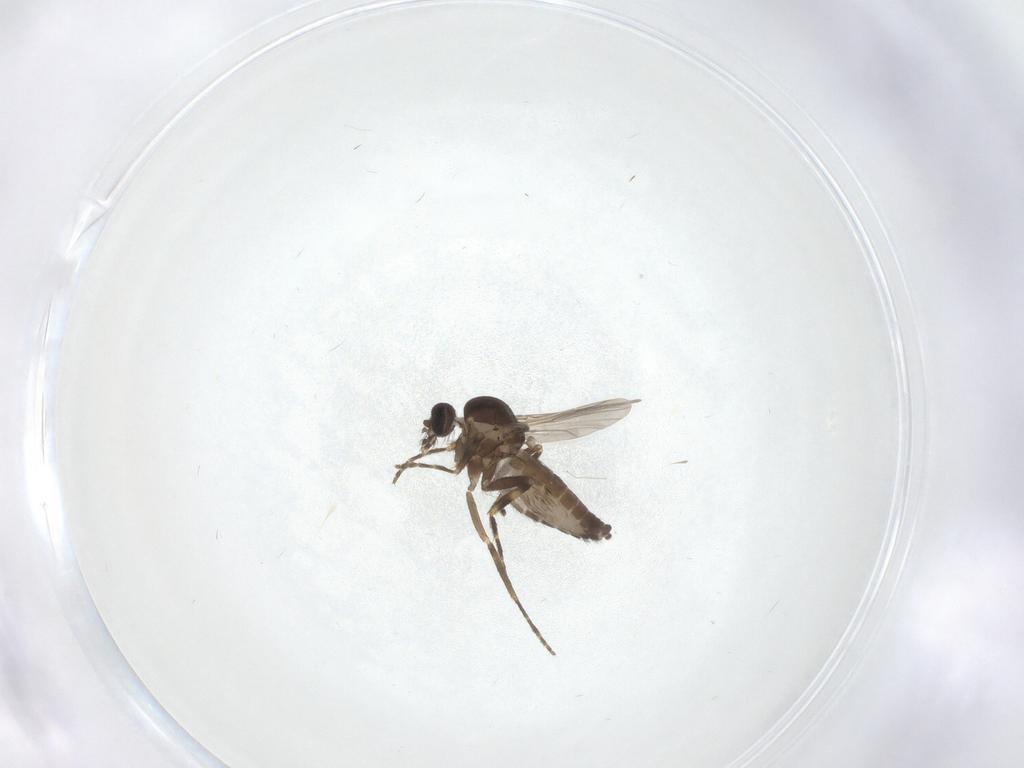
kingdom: Animalia
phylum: Arthropoda
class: Insecta
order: Diptera
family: Ceratopogonidae
